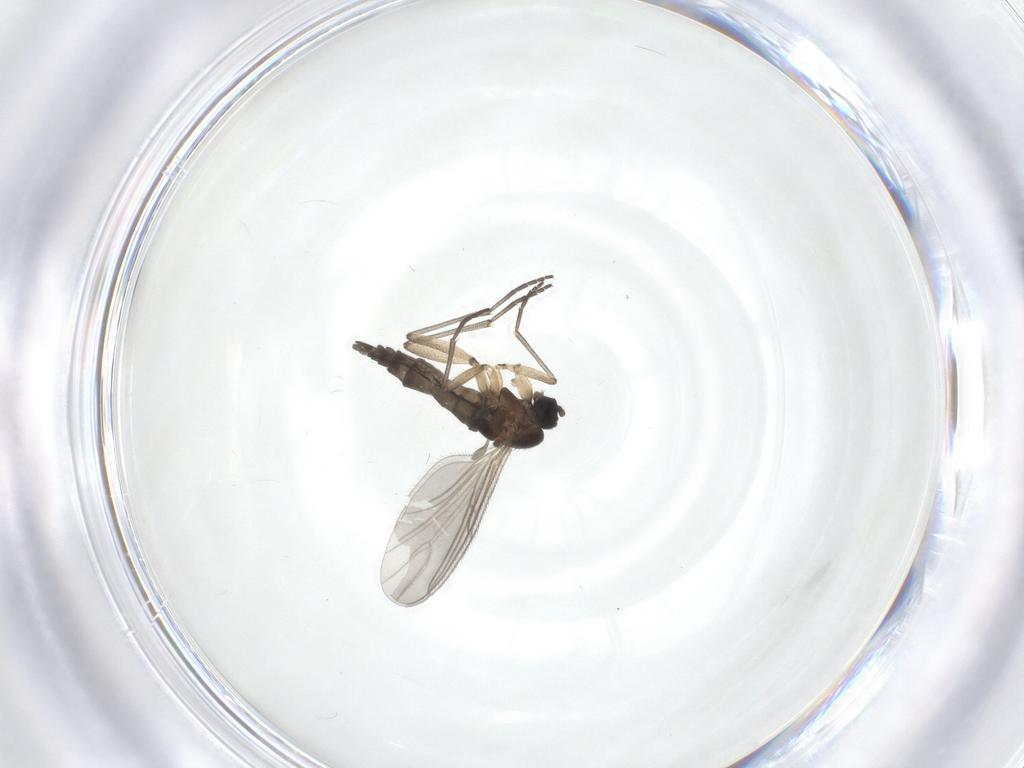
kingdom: Animalia
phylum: Arthropoda
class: Insecta
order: Diptera
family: Sciaridae
